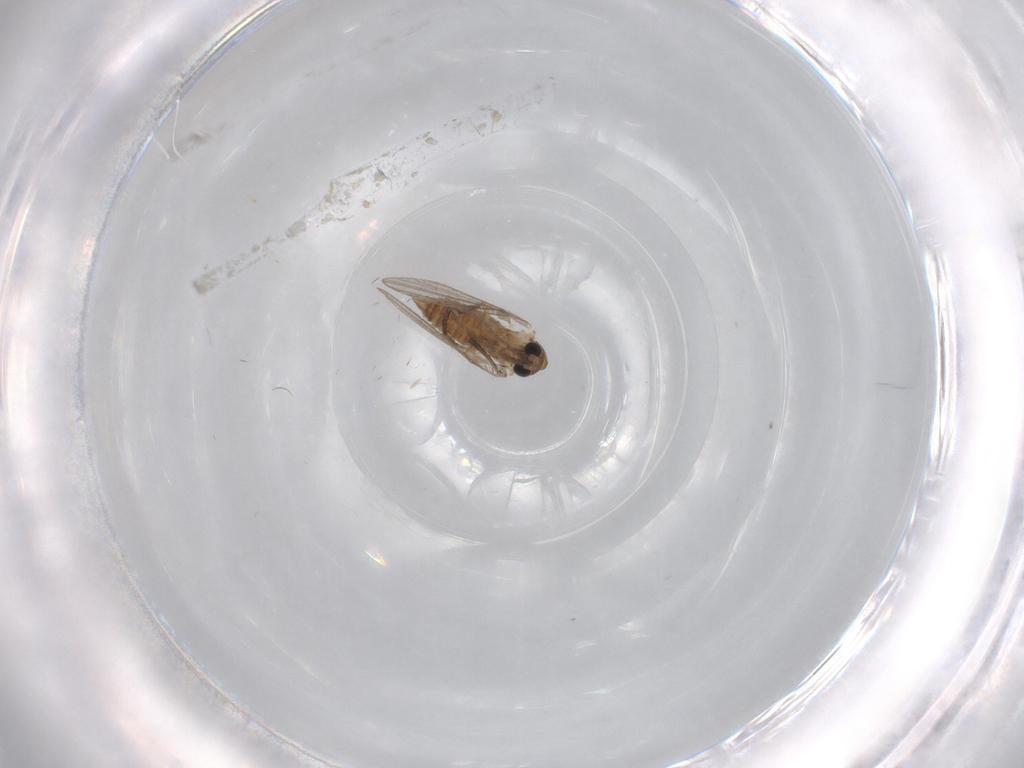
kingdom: Animalia
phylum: Arthropoda
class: Insecta
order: Diptera
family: Cecidomyiidae
